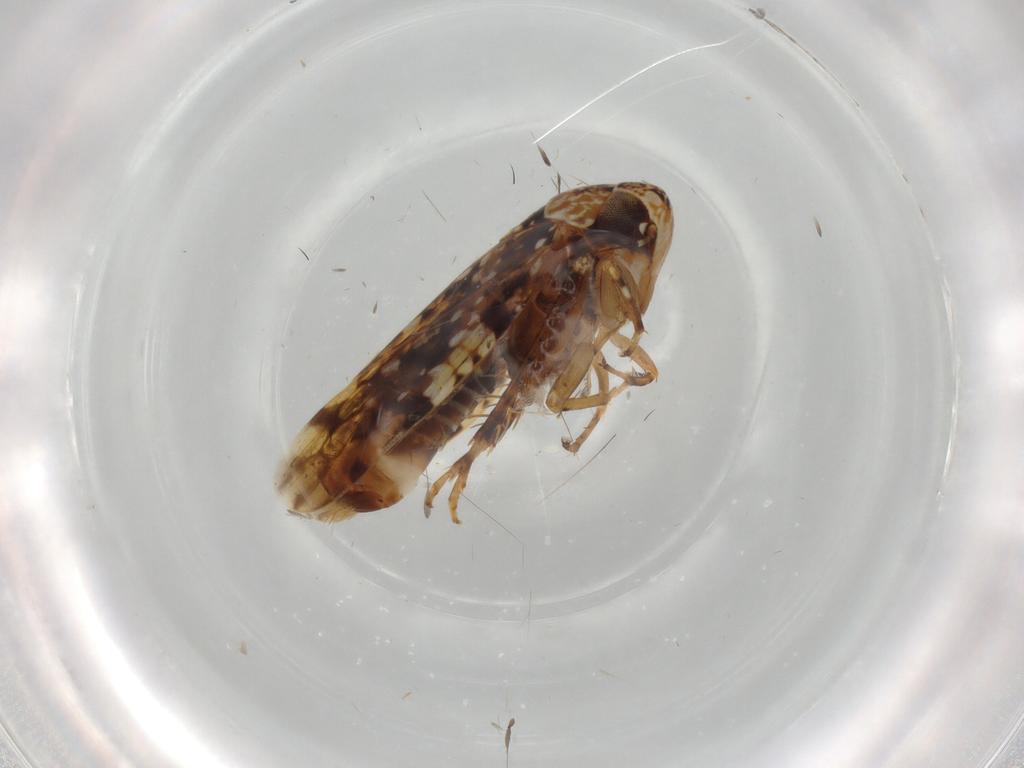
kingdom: Animalia
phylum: Arthropoda
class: Insecta
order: Hemiptera
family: Cicadellidae
